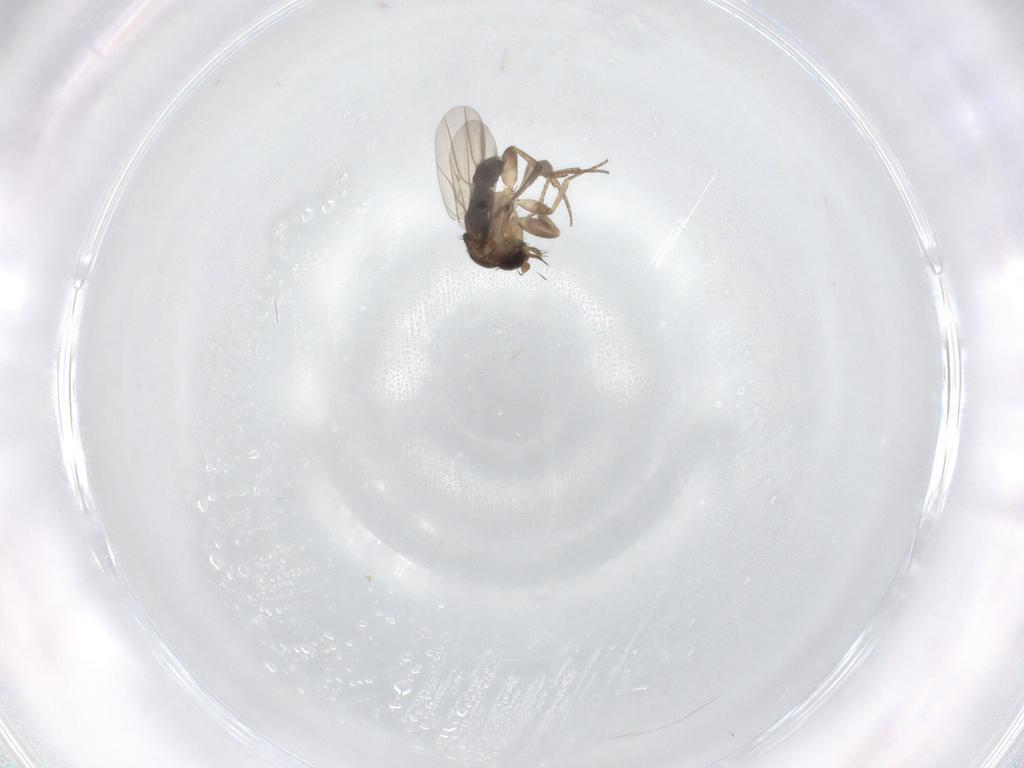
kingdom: Animalia
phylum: Arthropoda
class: Insecta
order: Diptera
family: Phoridae
